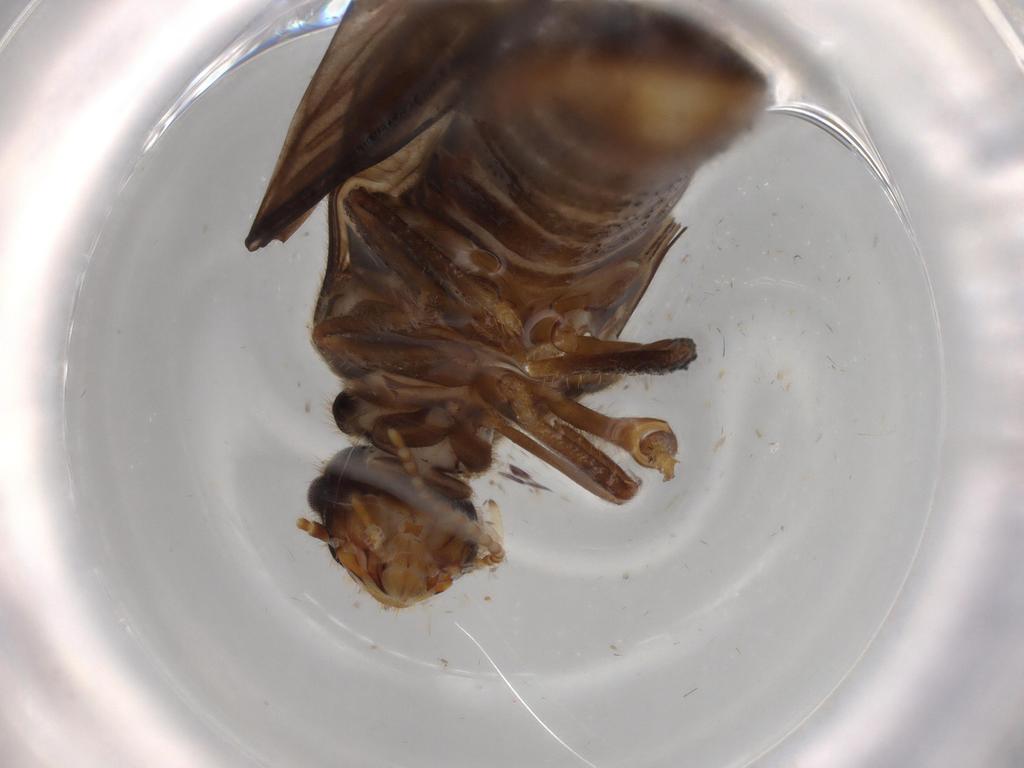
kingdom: Animalia
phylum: Arthropoda
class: Insecta
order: Blattodea
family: Termitidae
